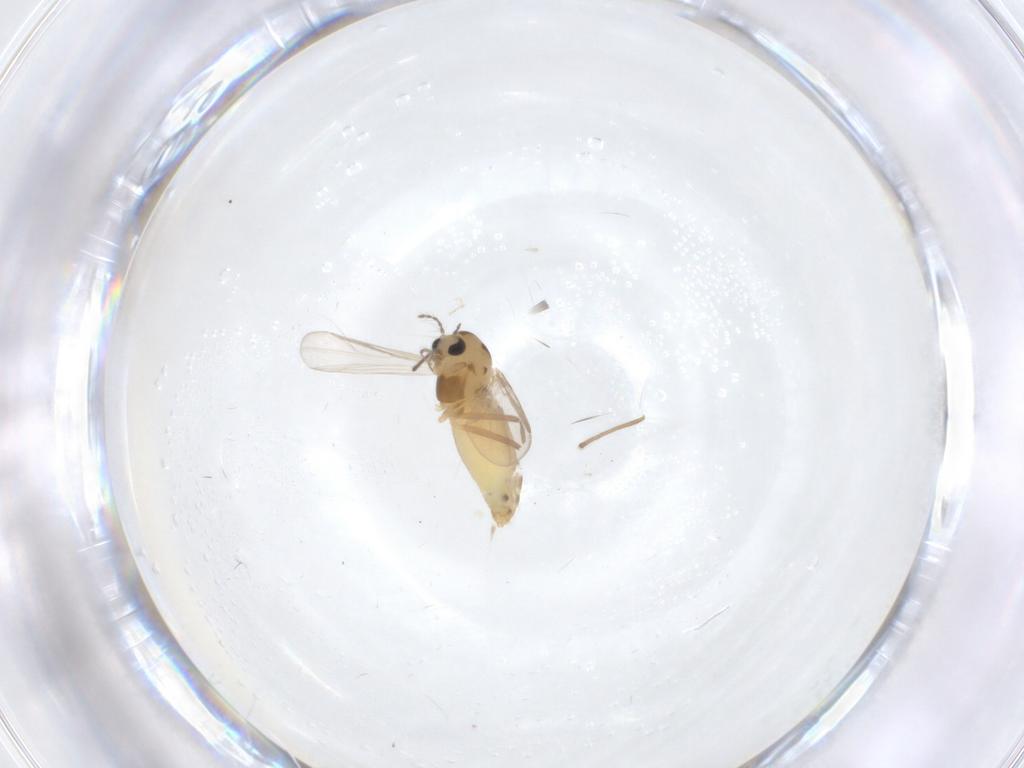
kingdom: Animalia
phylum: Arthropoda
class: Insecta
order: Diptera
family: Chironomidae
